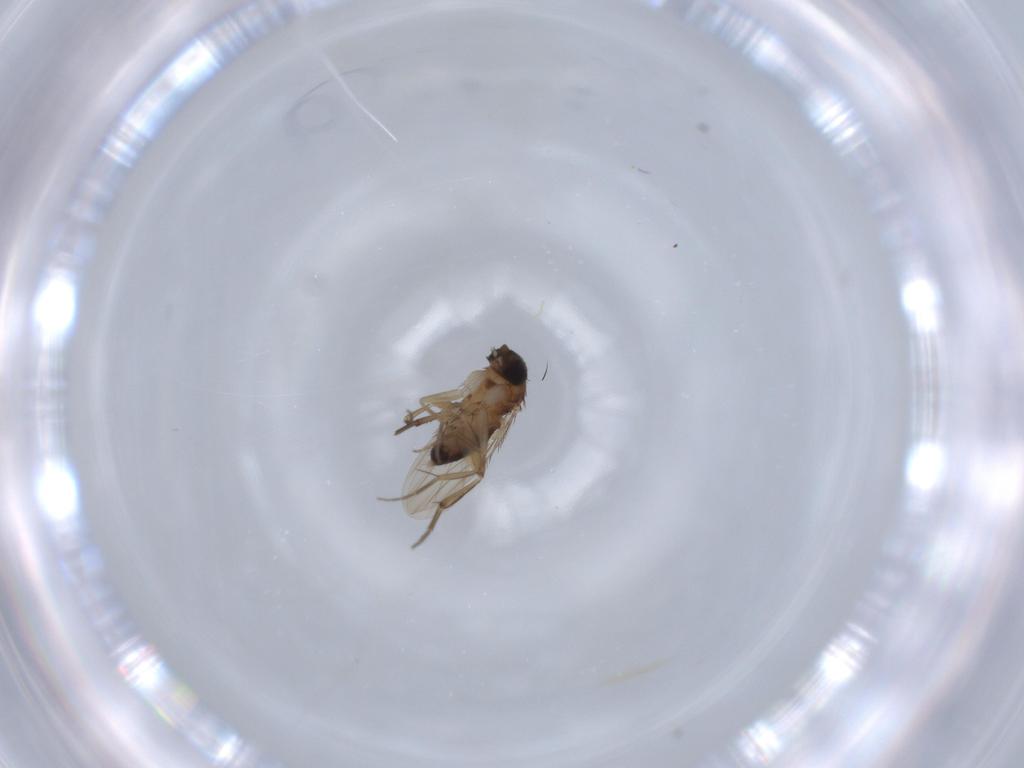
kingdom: Animalia
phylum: Arthropoda
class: Insecta
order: Diptera
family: Phoridae
